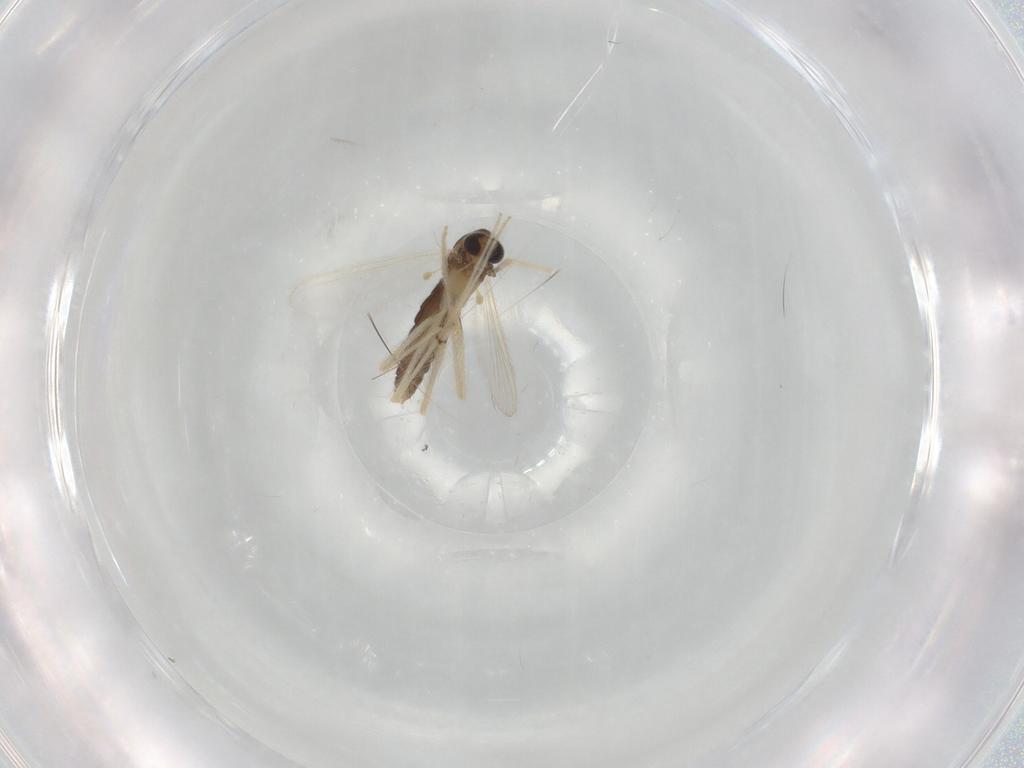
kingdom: Animalia
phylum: Arthropoda
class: Insecta
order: Diptera
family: Chironomidae
